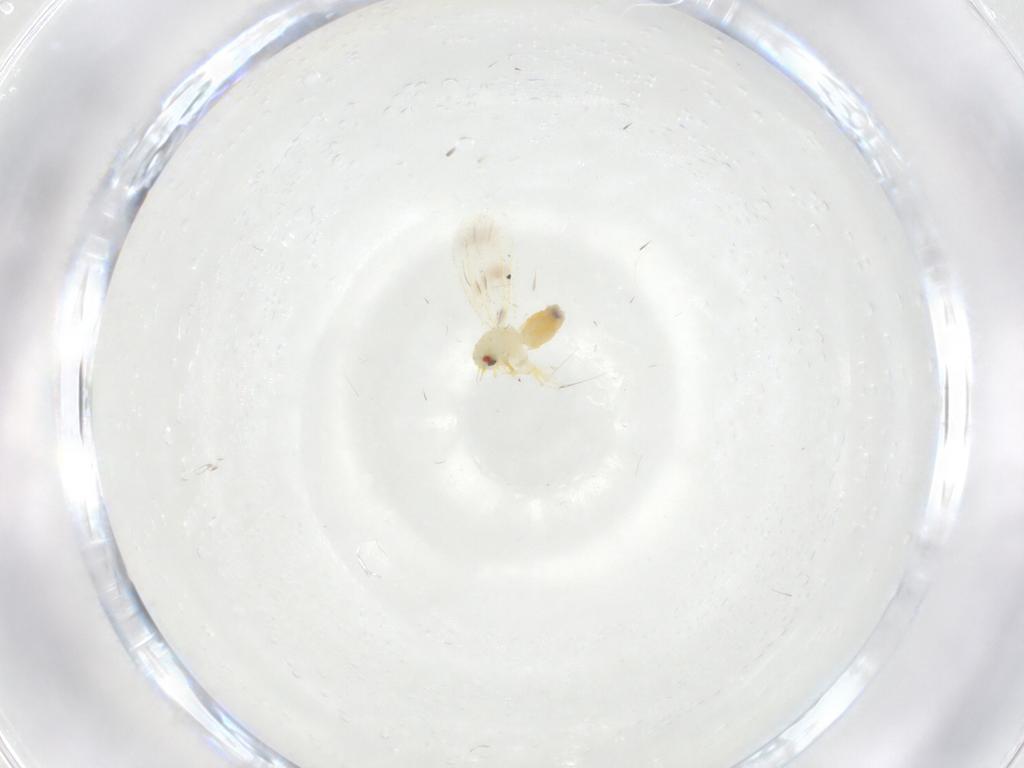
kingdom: Animalia
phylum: Arthropoda
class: Insecta
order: Hemiptera
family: Aleyrodidae
